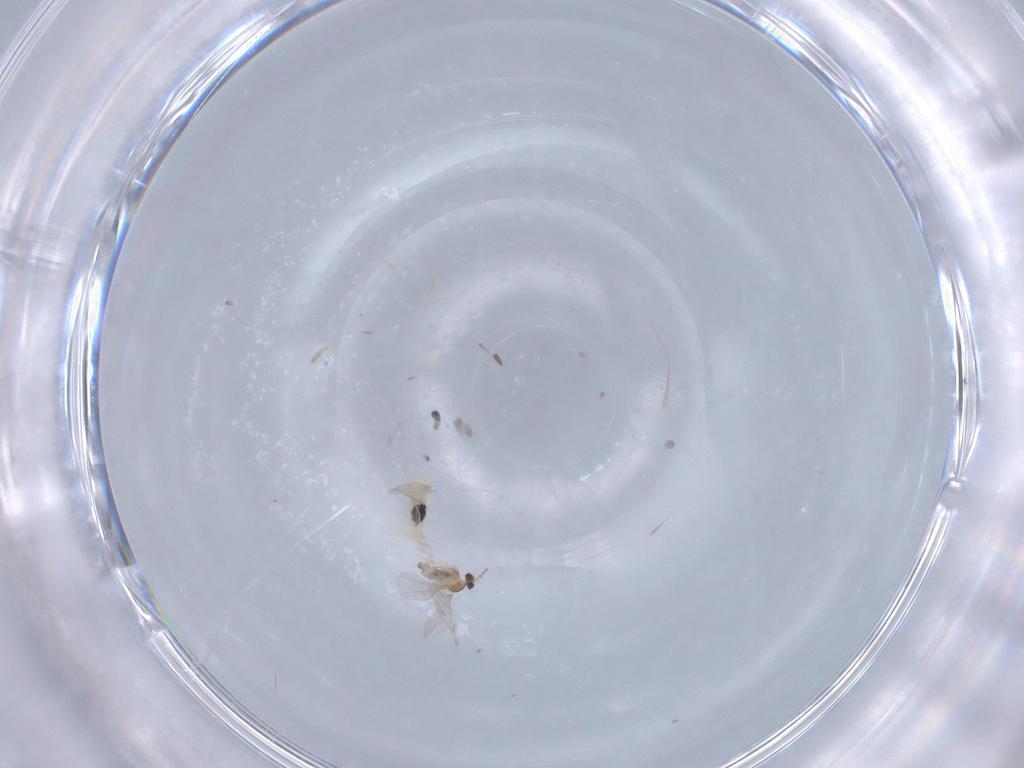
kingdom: Animalia
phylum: Arthropoda
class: Insecta
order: Diptera
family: Cecidomyiidae
